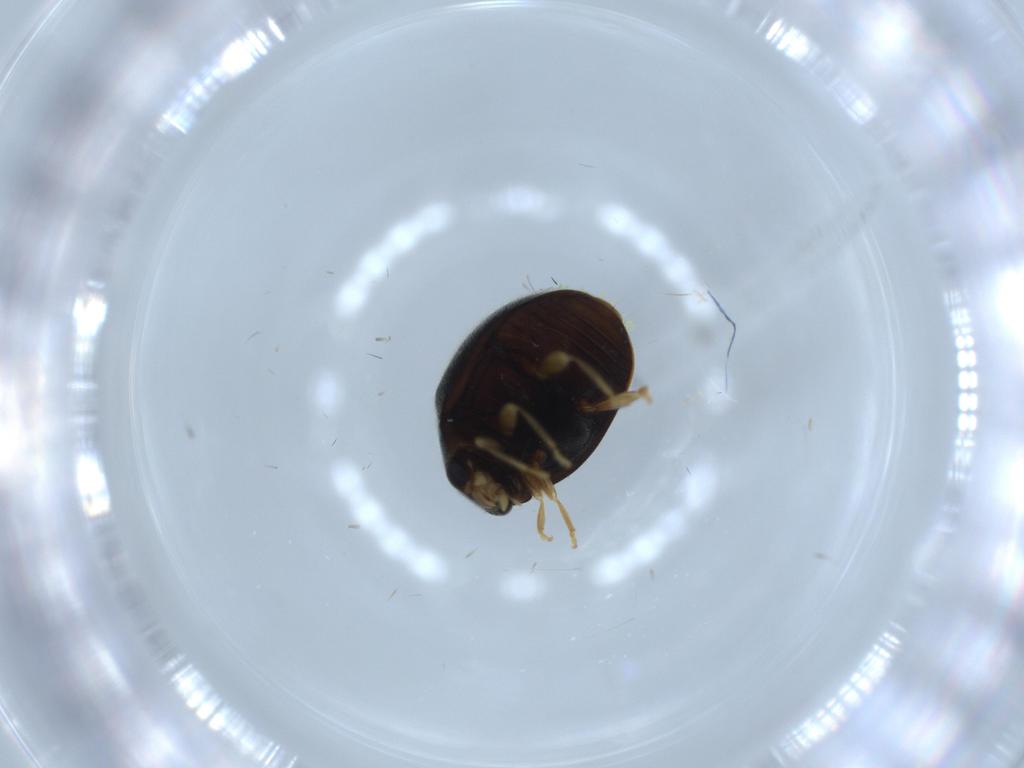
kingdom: Animalia
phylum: Arthropoda
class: Insecta
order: Coleoptera
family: Coccinellidae
